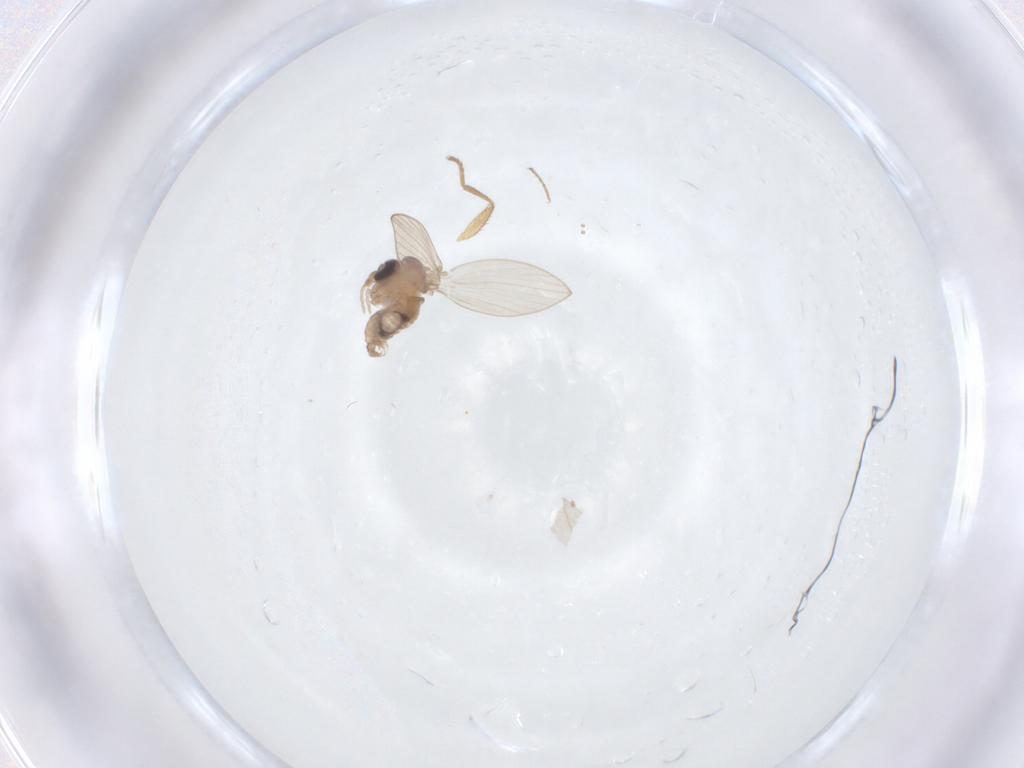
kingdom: Animalia
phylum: Arthropoda
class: Insecta
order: Diptera
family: Psychodidae
